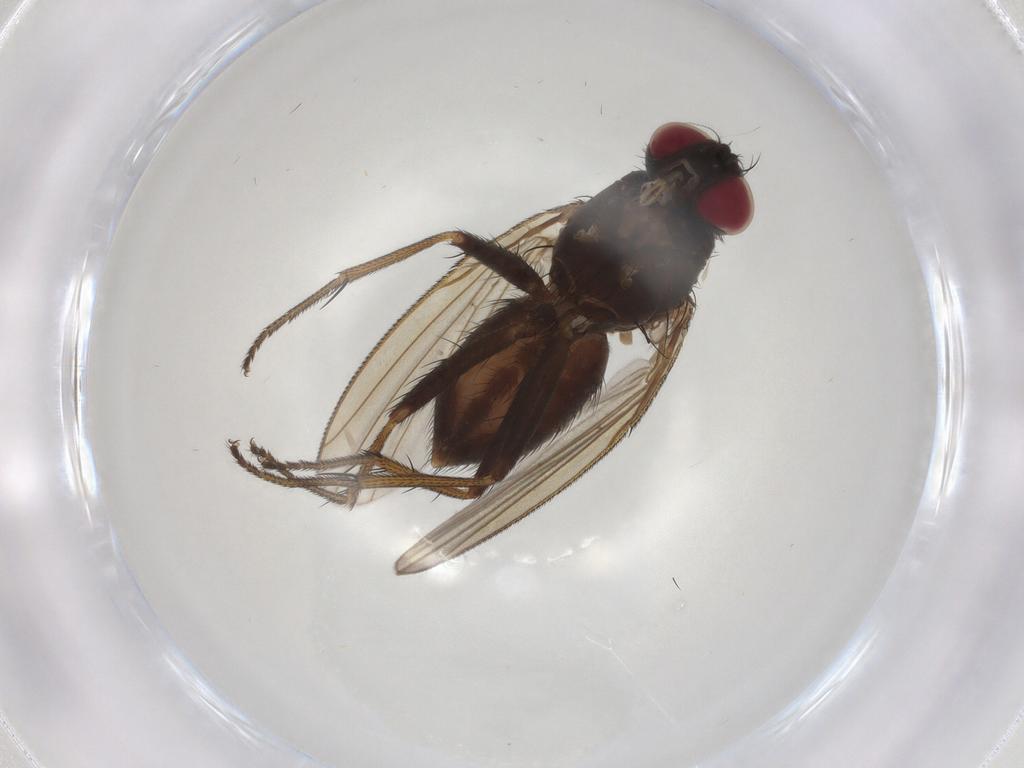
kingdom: Animalia
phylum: Arthropoda
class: Insecta
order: Diptera
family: Muscidae
